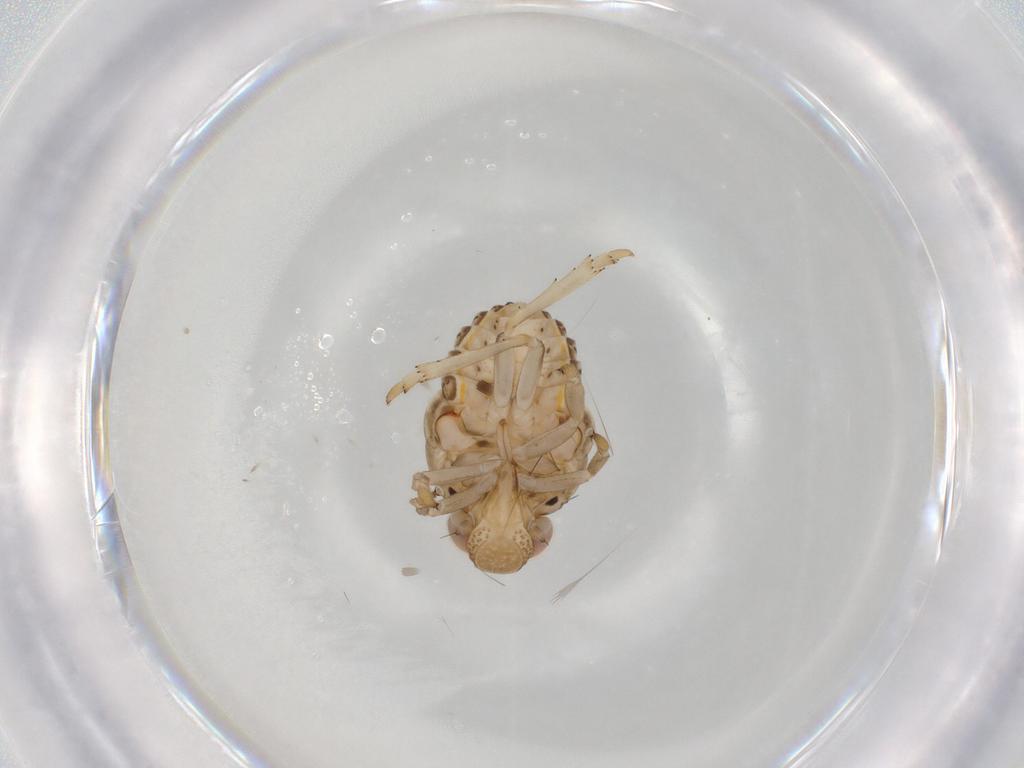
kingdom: Animalia
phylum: Arthropoda
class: Insecta
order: Hemiptera
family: Issidae
